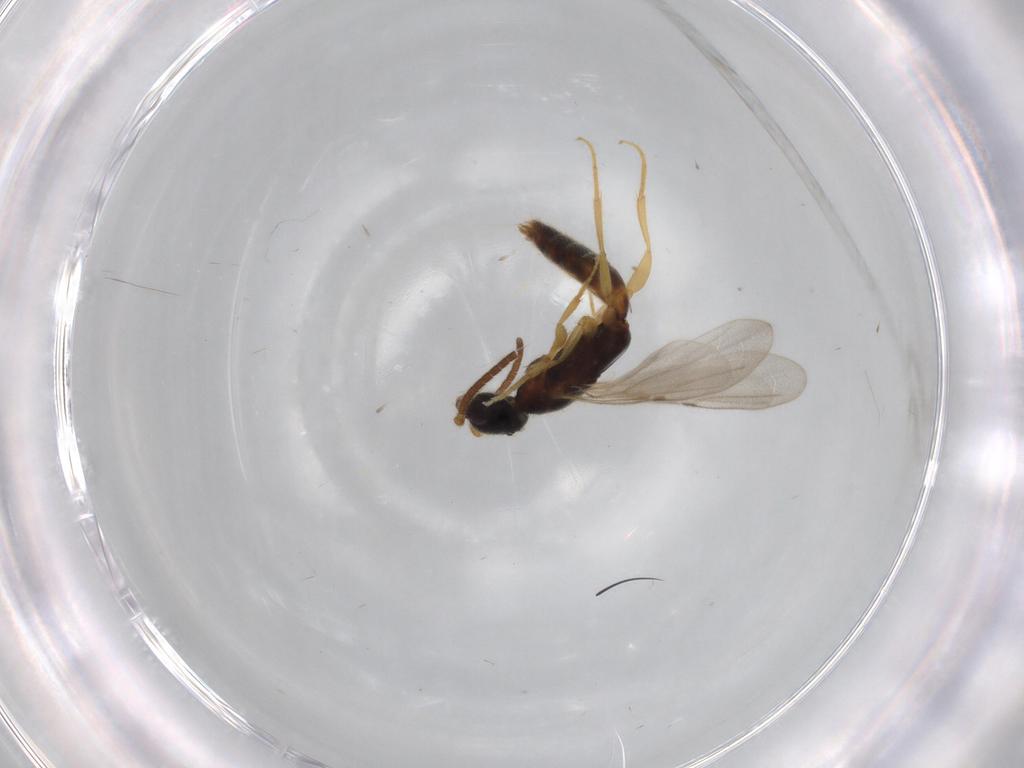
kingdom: Animalia
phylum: Arthropoda
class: Insecta
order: Hymenoptera
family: Bethylidae
